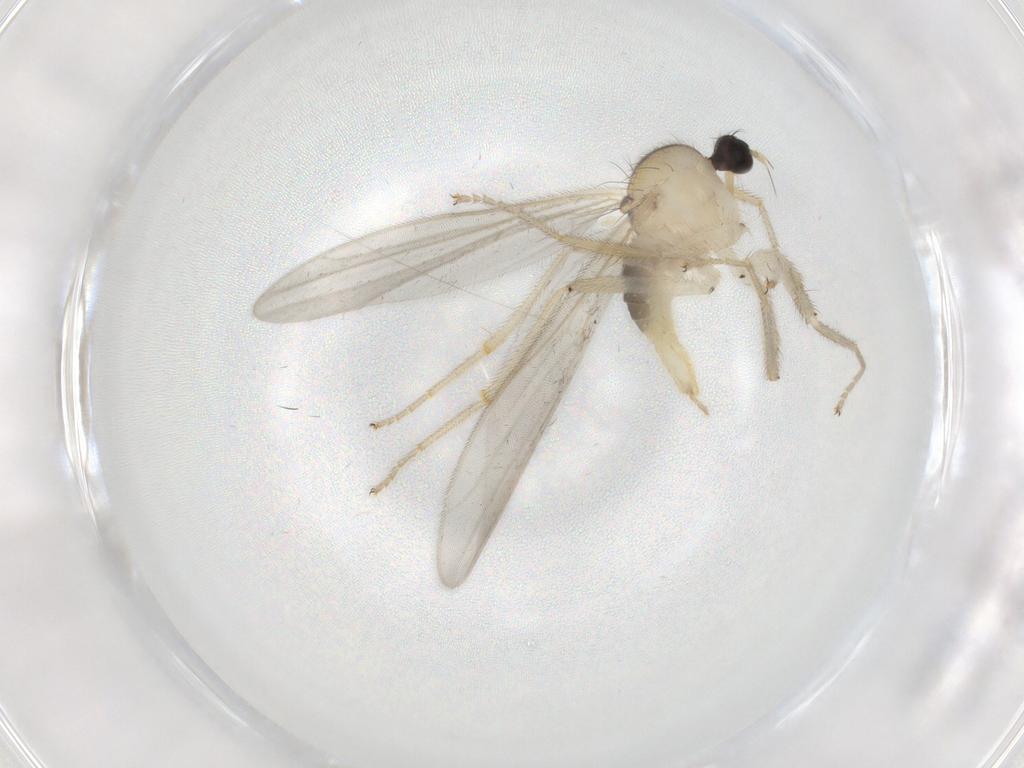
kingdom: Animalia
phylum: Arthropoda
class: Insecta
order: Diptera
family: Hybotidae
